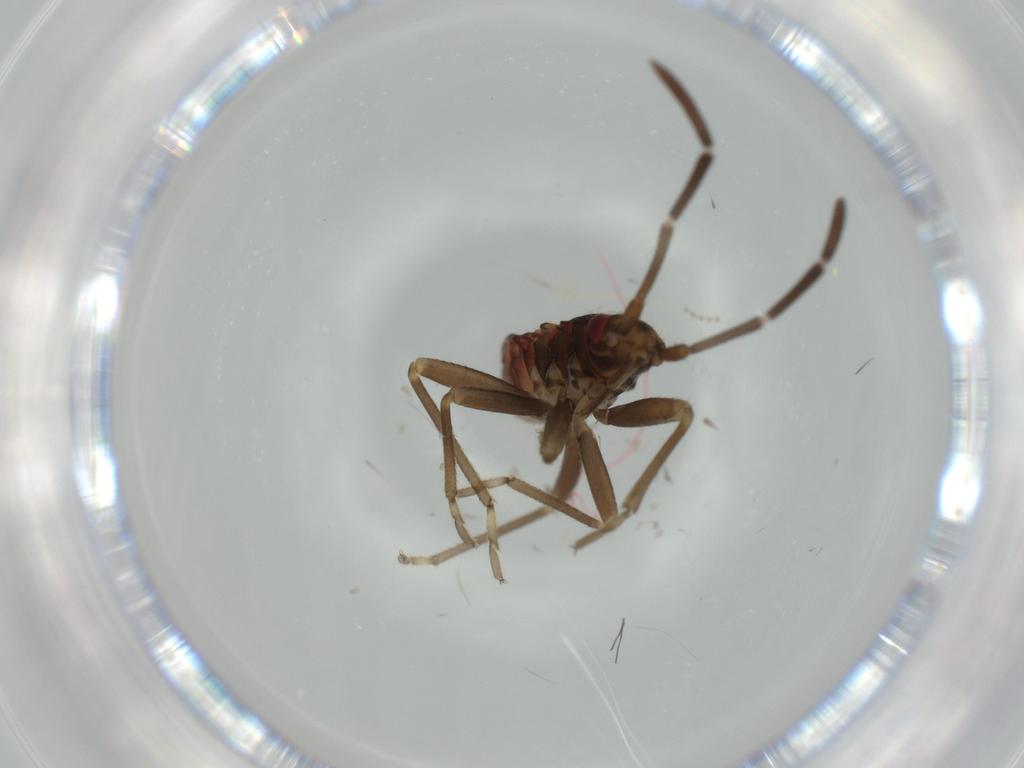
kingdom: Animalia
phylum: Arthropoda
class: Insecta
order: Hemiptera
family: Rhyparochromidae
